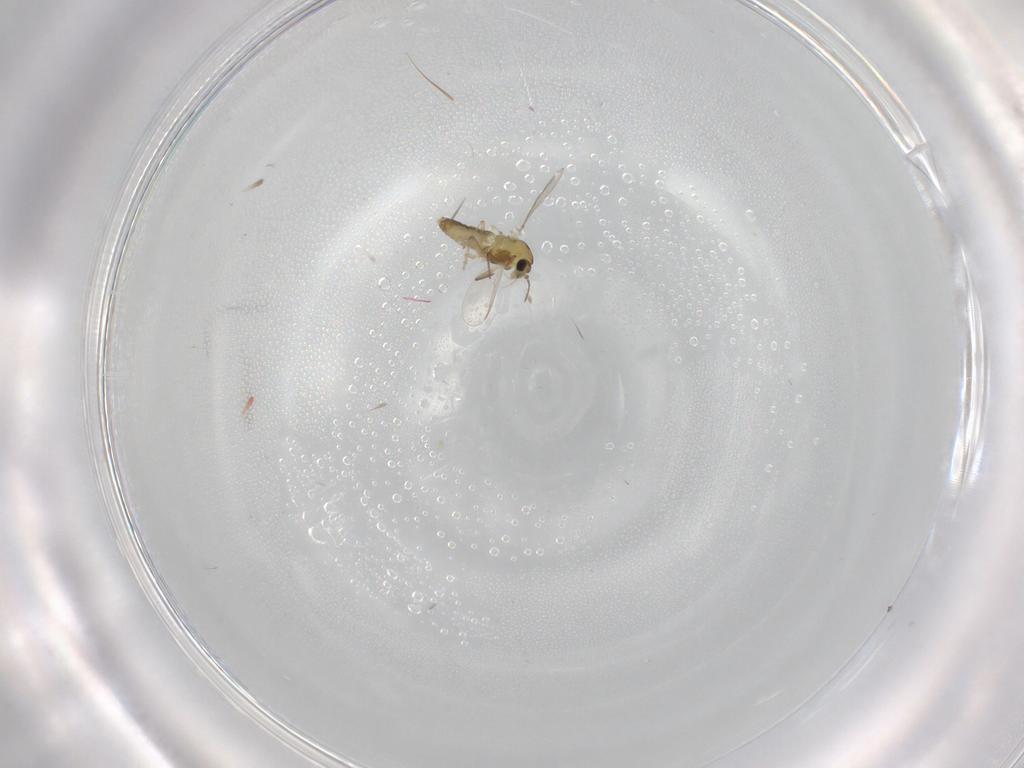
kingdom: Animalia
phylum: Arthropoda
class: Insecta
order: Diptera
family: Chironomidae
